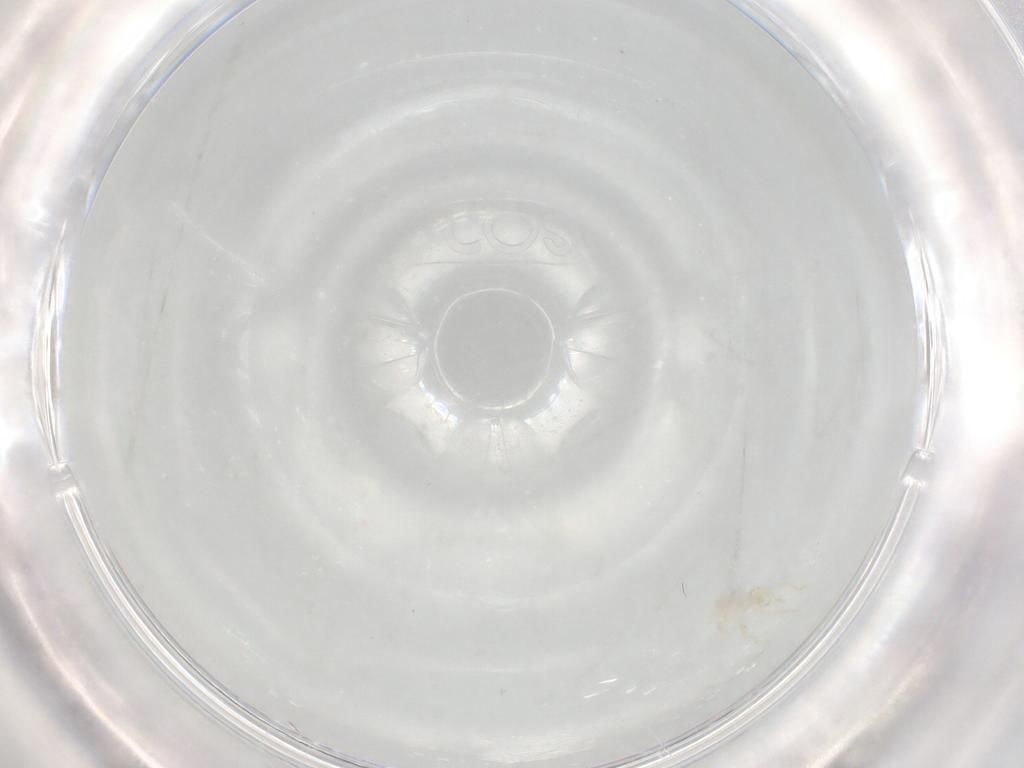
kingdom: Animalia
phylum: Arthropoda
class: Arachnida
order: Trombidiformes
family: Erythraeidae
